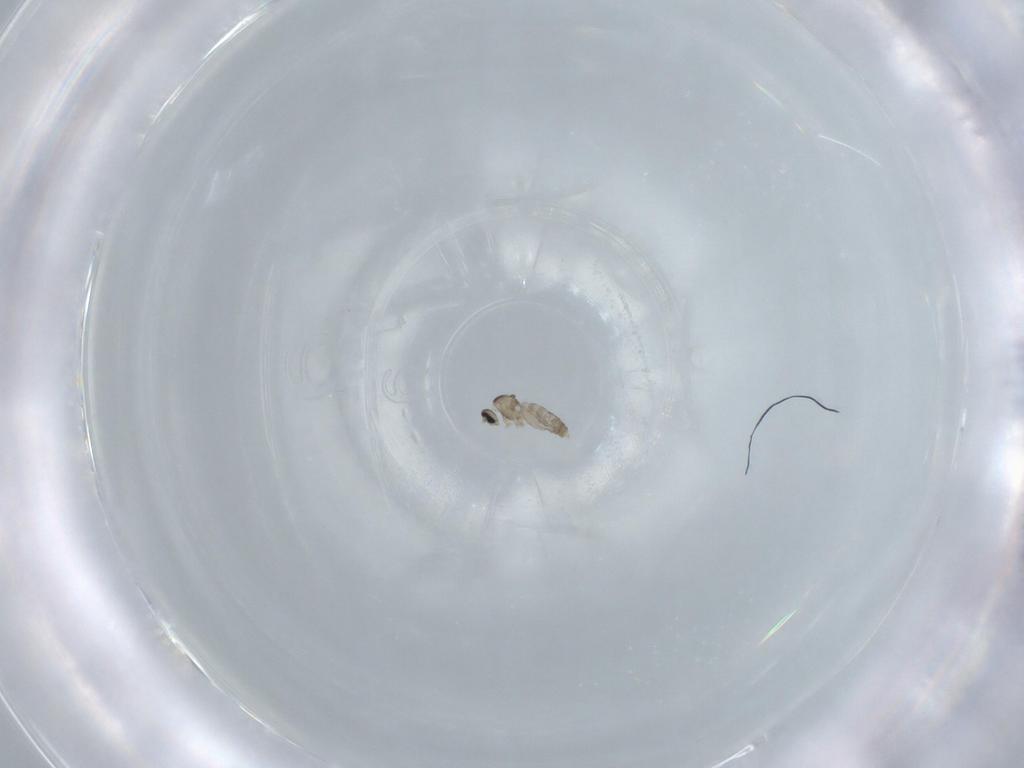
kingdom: Animalia
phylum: Arthropoda
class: Insecta
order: Diptera
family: Cecidomyiidae
